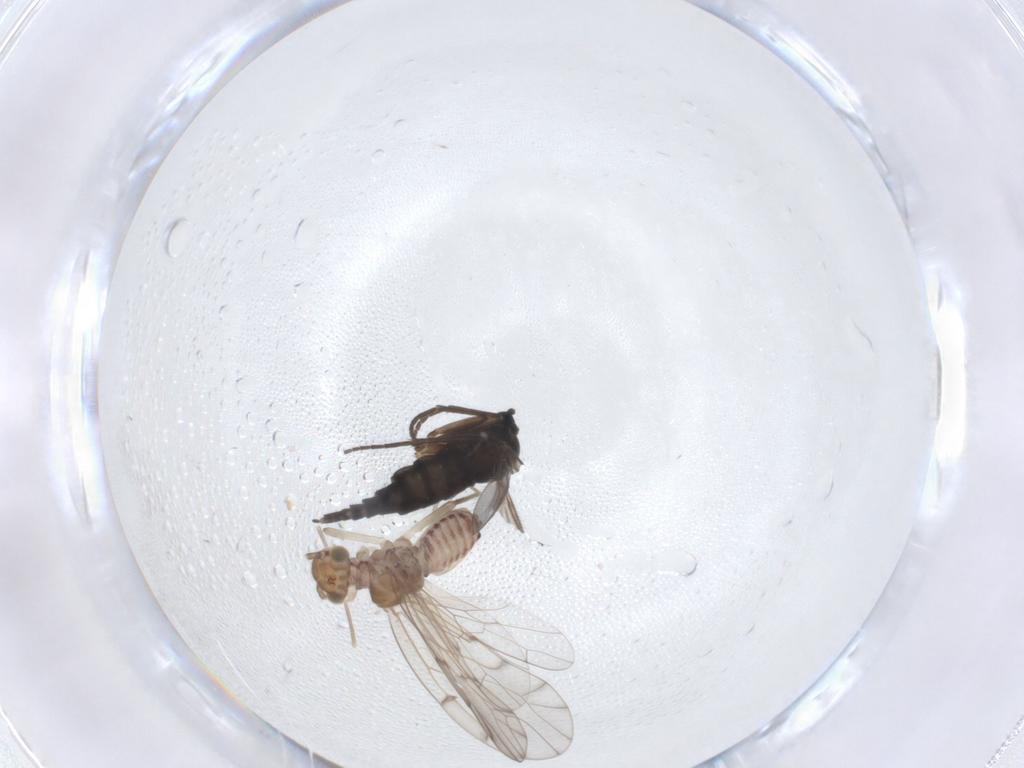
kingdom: Animalia
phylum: Arthropoda
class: Insecta
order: Diptera
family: Sciaridae
